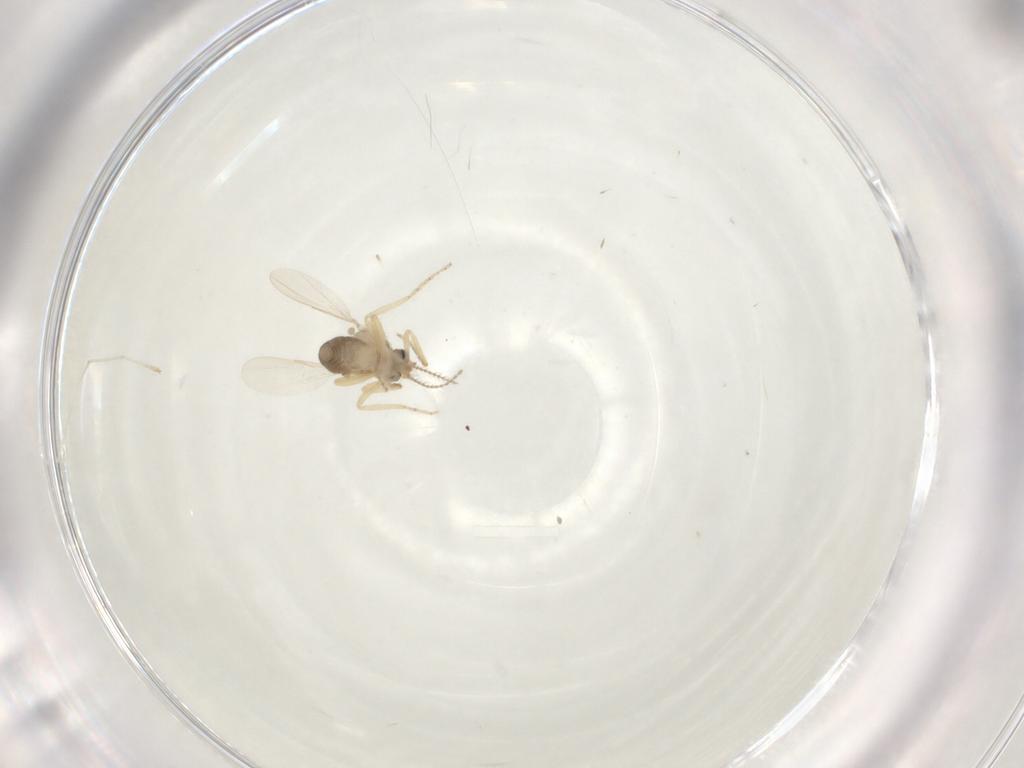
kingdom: Animalia
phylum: Arthropoda
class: Insecta
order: Diptera
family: Ceratopogonidae
